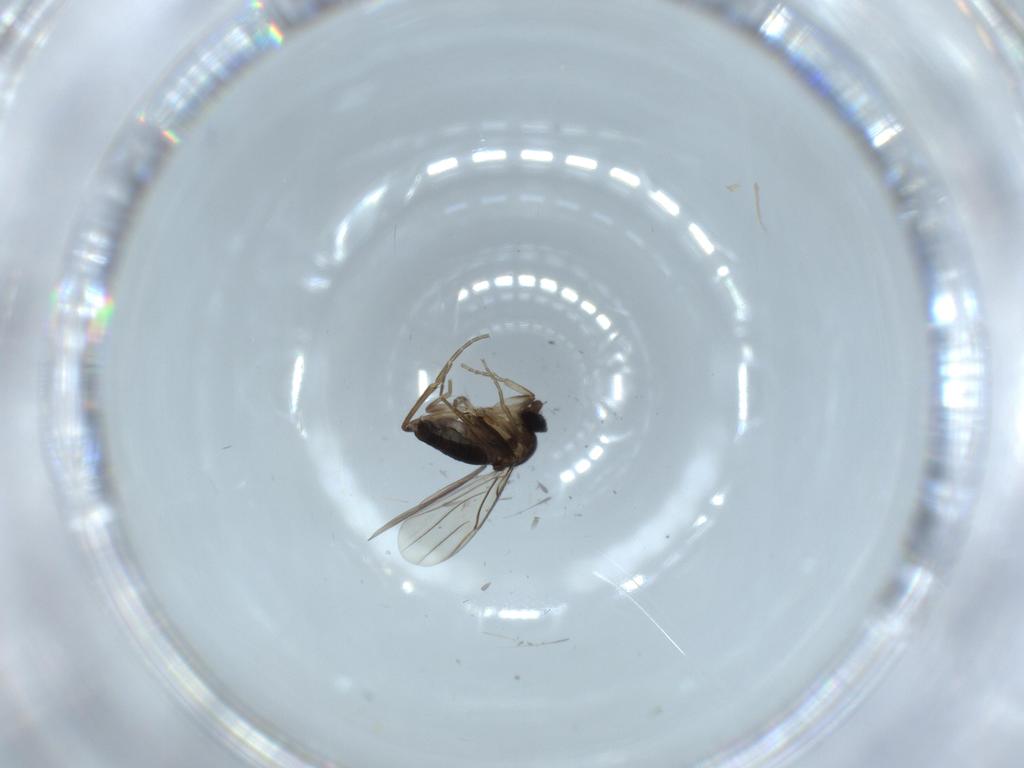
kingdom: Animalia
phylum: Arthropoda
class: Insecta
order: Diptera
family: Phoridae
